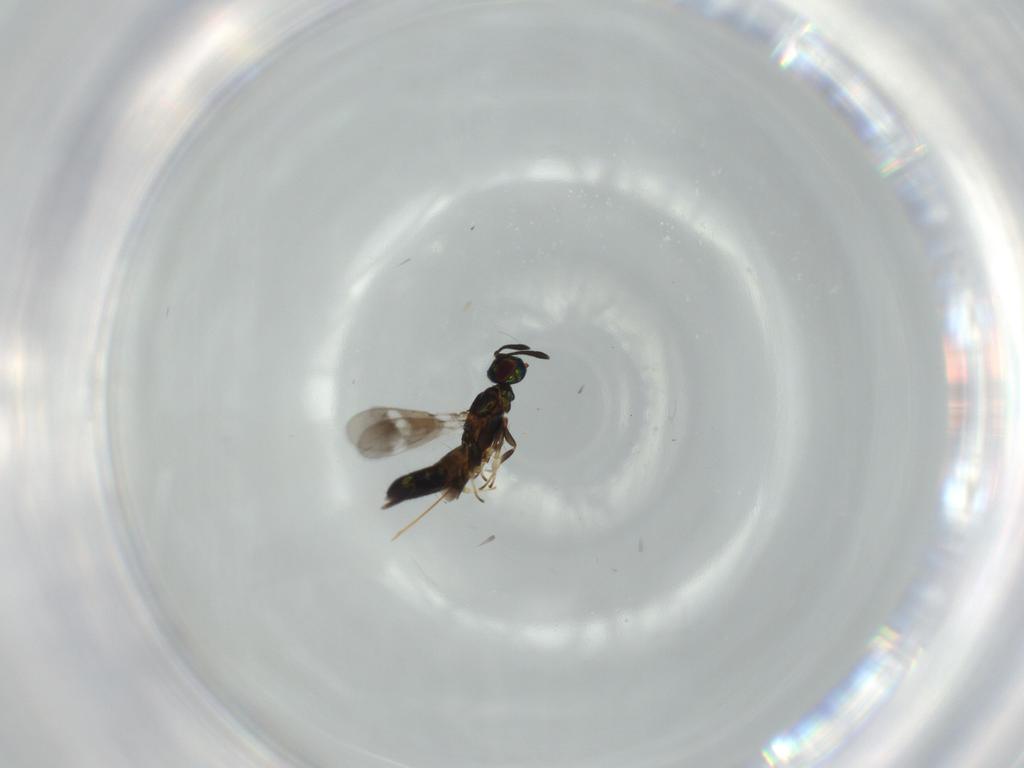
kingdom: Animalia
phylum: Arthropoda
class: Insecta
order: Hymenoptera
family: Eupelmidae
